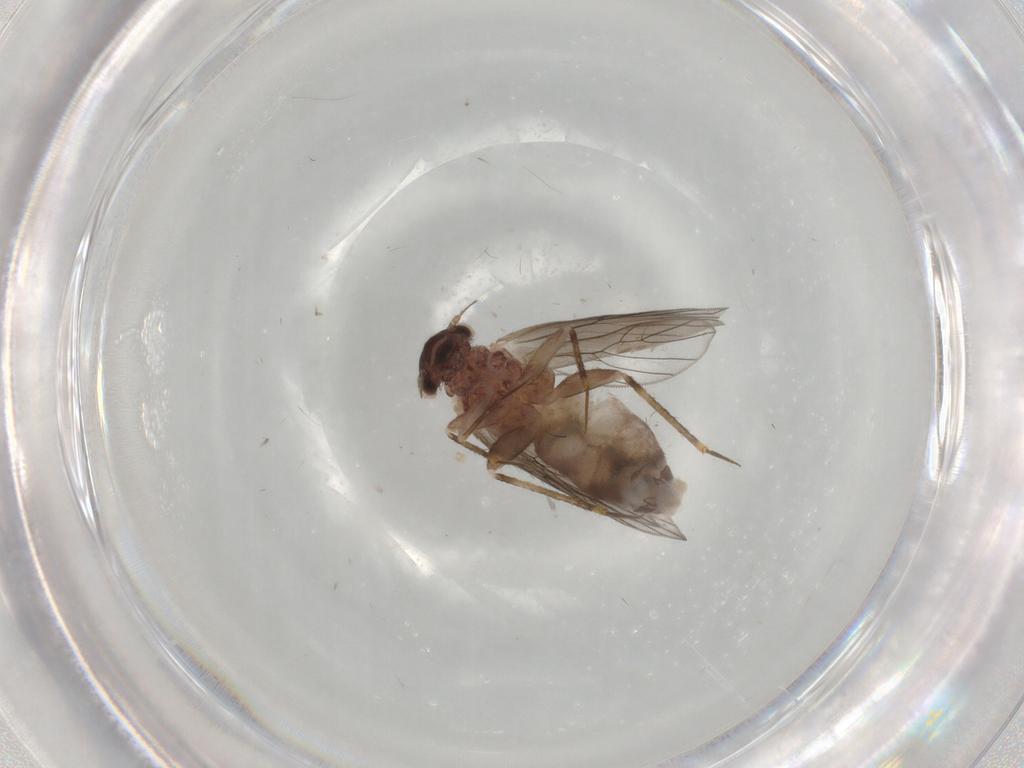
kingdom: Animalia
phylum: Arthropoda
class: Insecta
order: Psocodea
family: Lepidopsocidae
